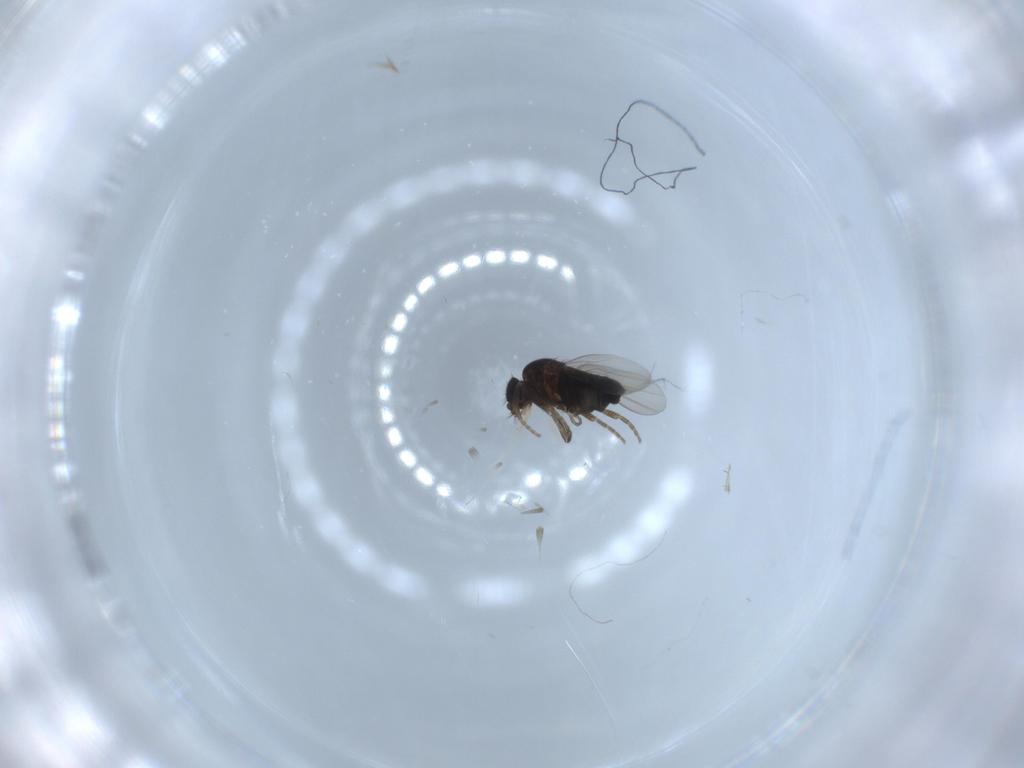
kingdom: Animalia
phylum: Arthropoda
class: Insecta
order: Diptera
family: Phoridae
